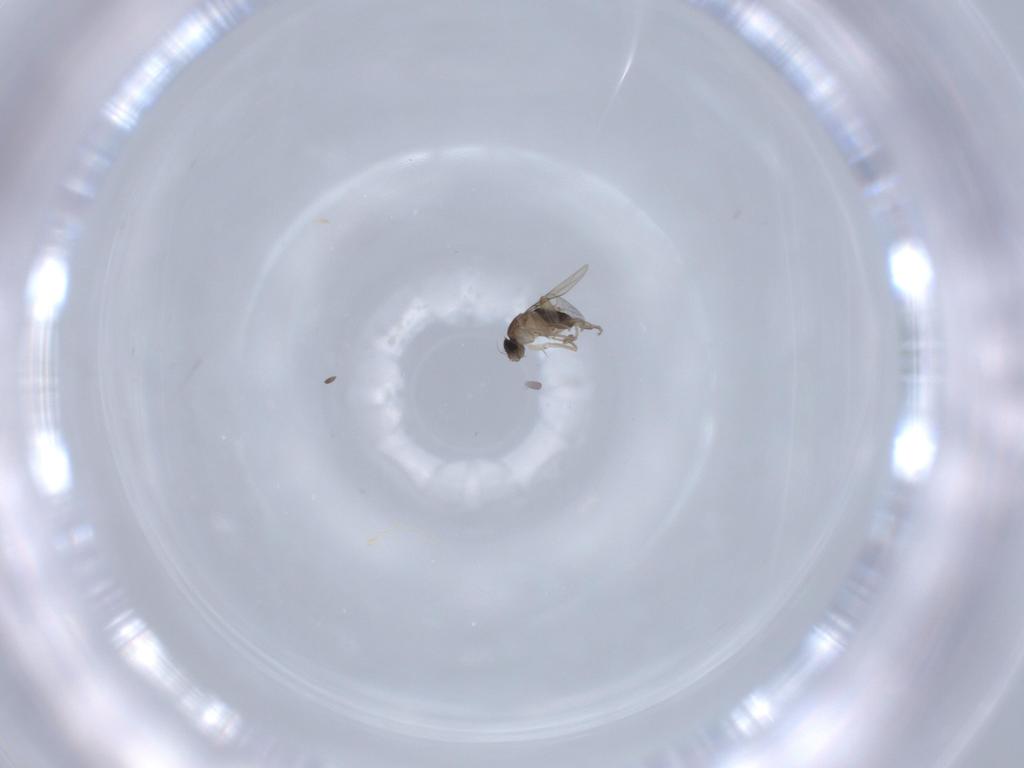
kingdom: Animalia
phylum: Arthropoda
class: Insecta
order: Diptera
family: Phoridae
